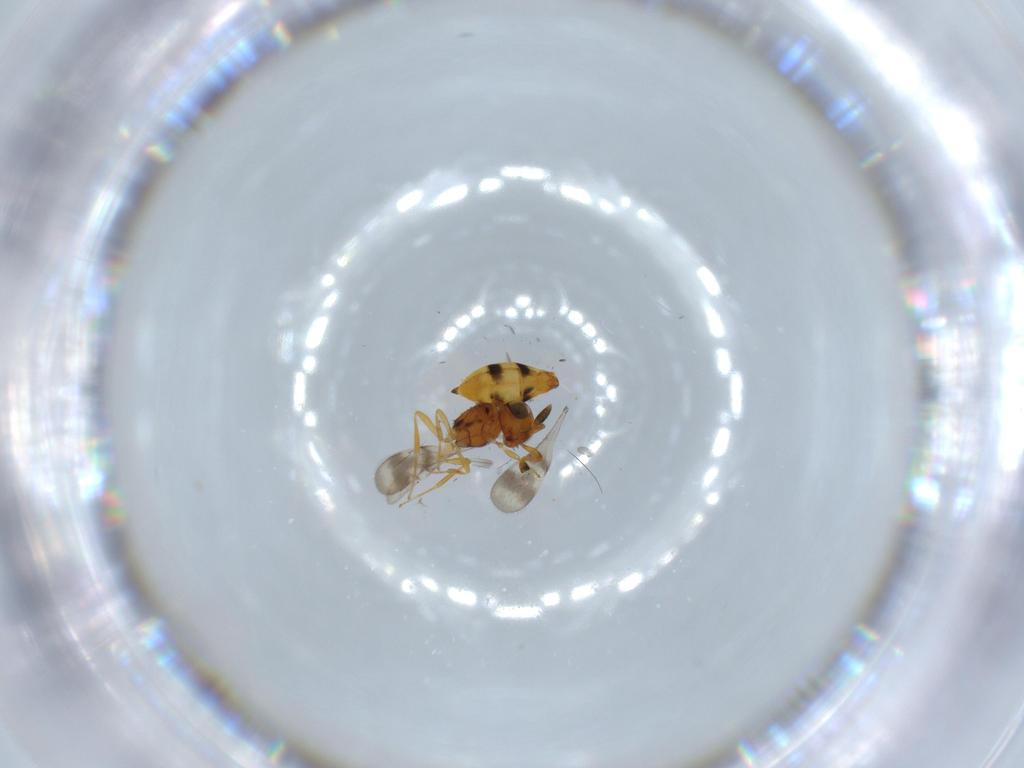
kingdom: Animalia
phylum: Arthropoda
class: Insecta
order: Hymenoptera
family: Scelionidae
